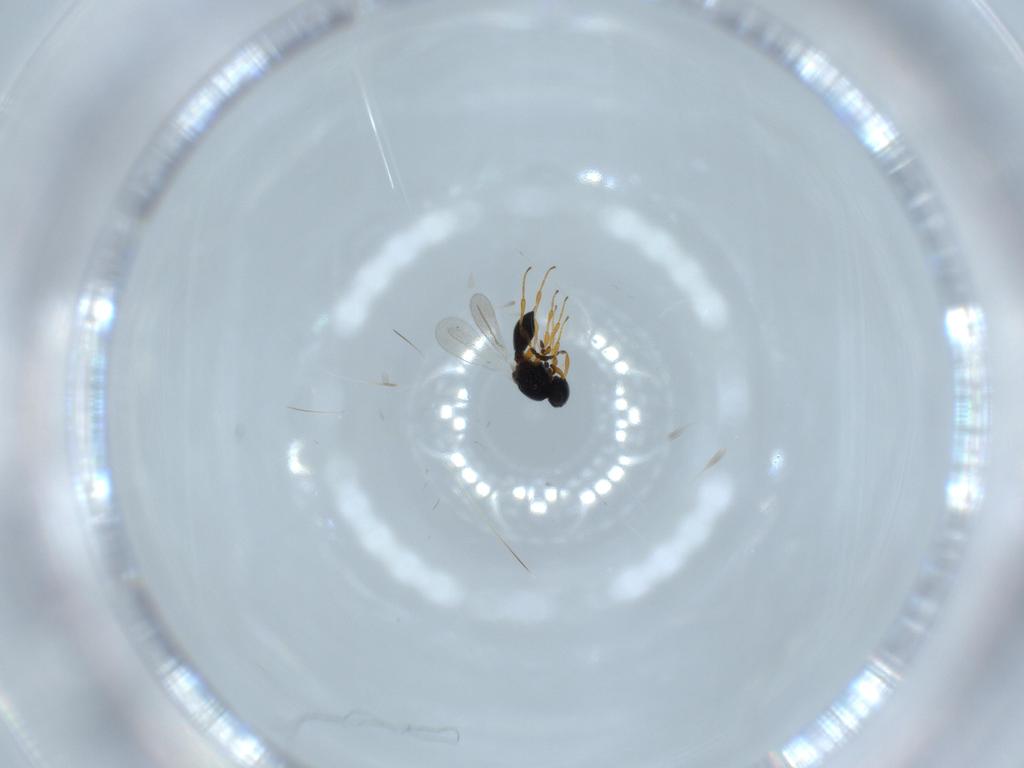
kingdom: Animalia
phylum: Arthropoda
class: Insecta
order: Hymenoptera
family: Platygastridae
